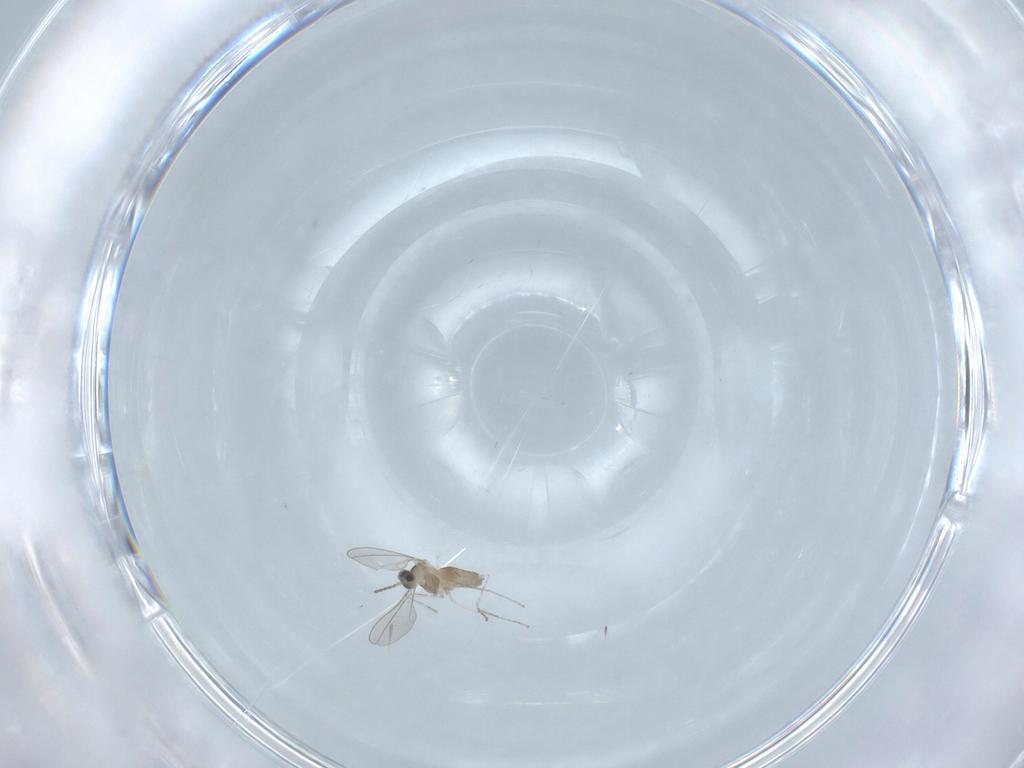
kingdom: Animalia
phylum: Arthropoda
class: Insecta
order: Diptera
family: Cecidomyiidae
